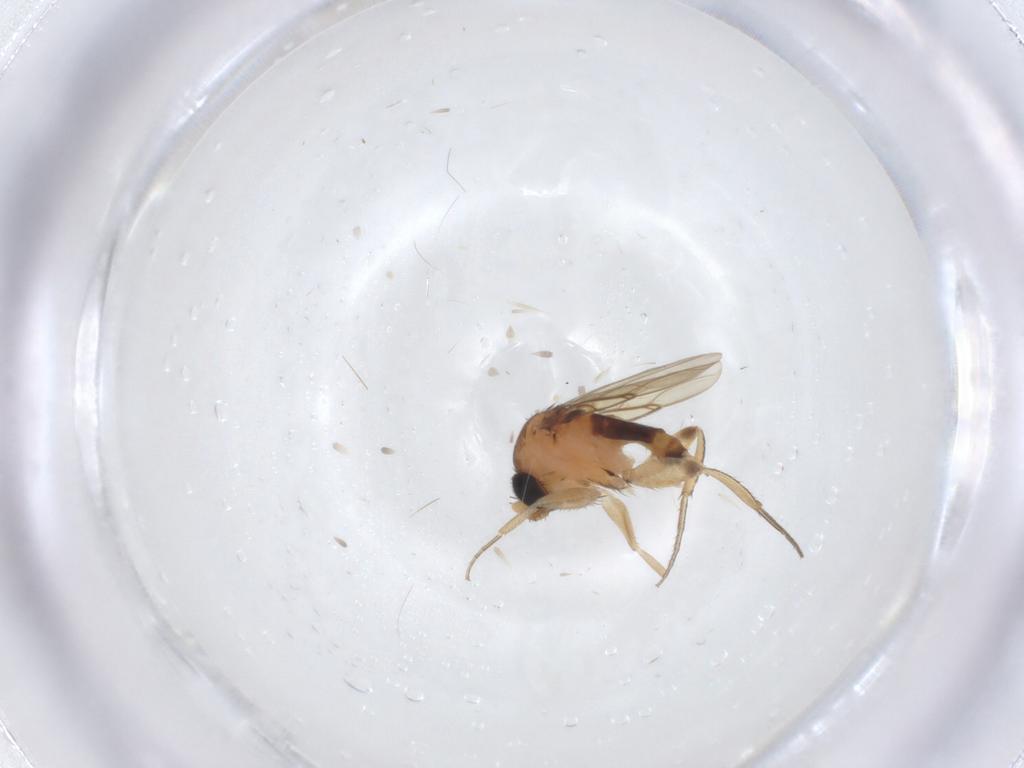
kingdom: Animalia
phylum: Arthropoda
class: Insecta
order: Diptera
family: Phoridae
